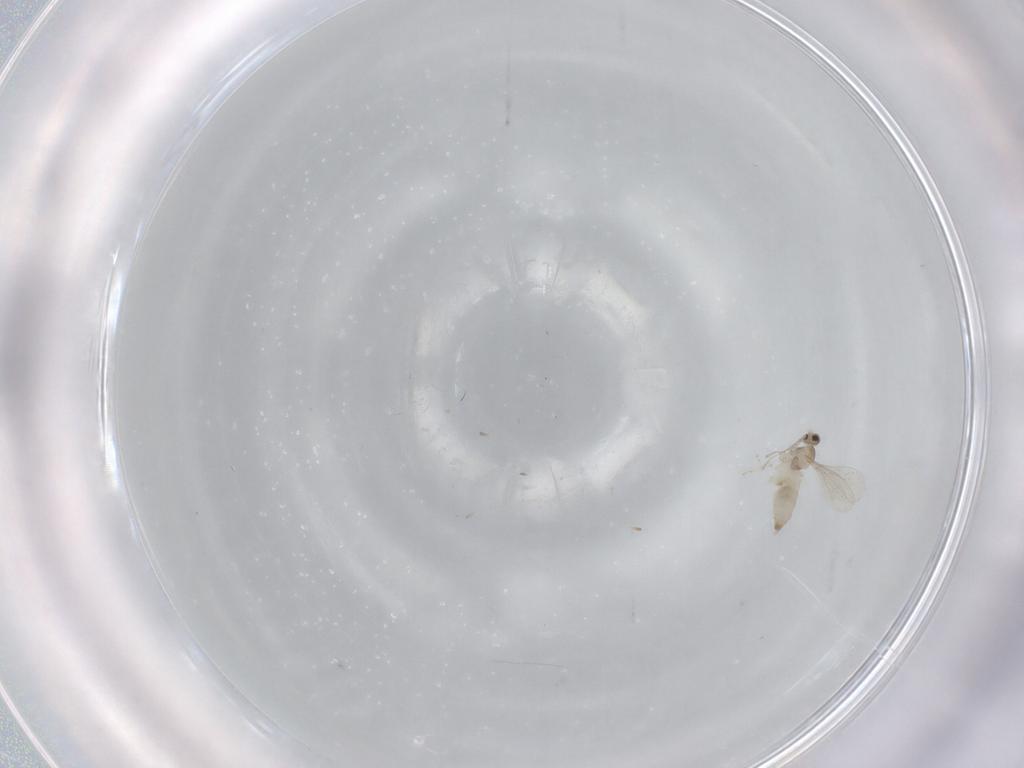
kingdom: Animalia
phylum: Arthropoda
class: Insecta
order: Diptera
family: Cecidomyiidae
